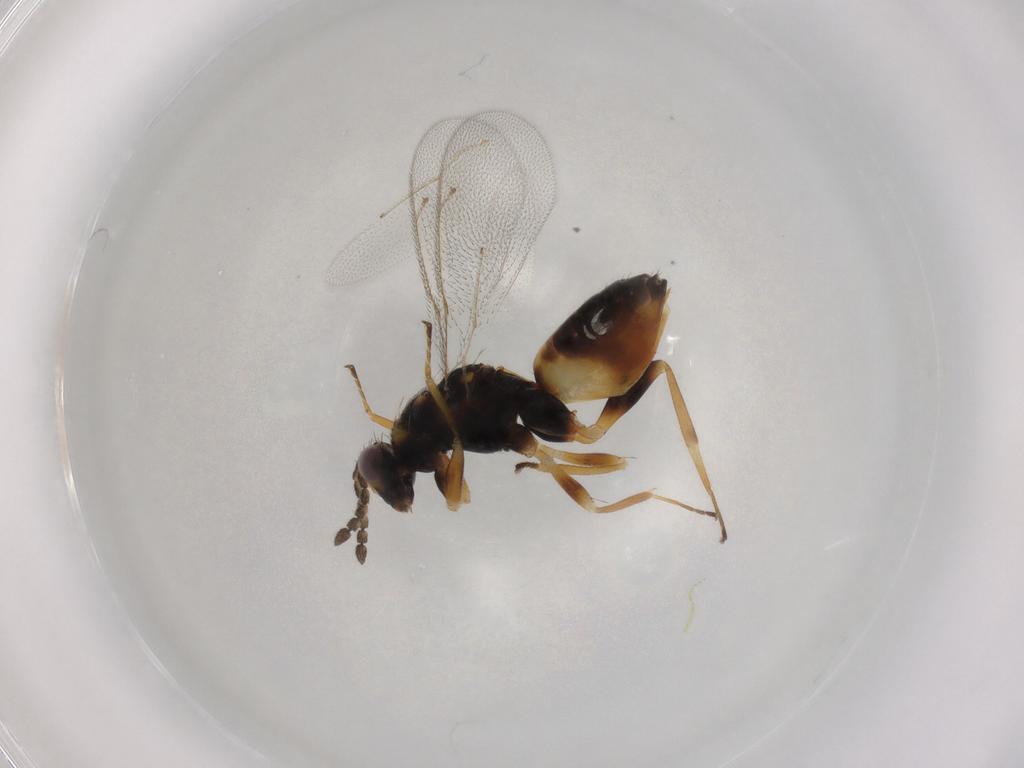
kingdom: Animalia
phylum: Arthropoda
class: Insecta
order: Hymenoptera
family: Eulophidae
